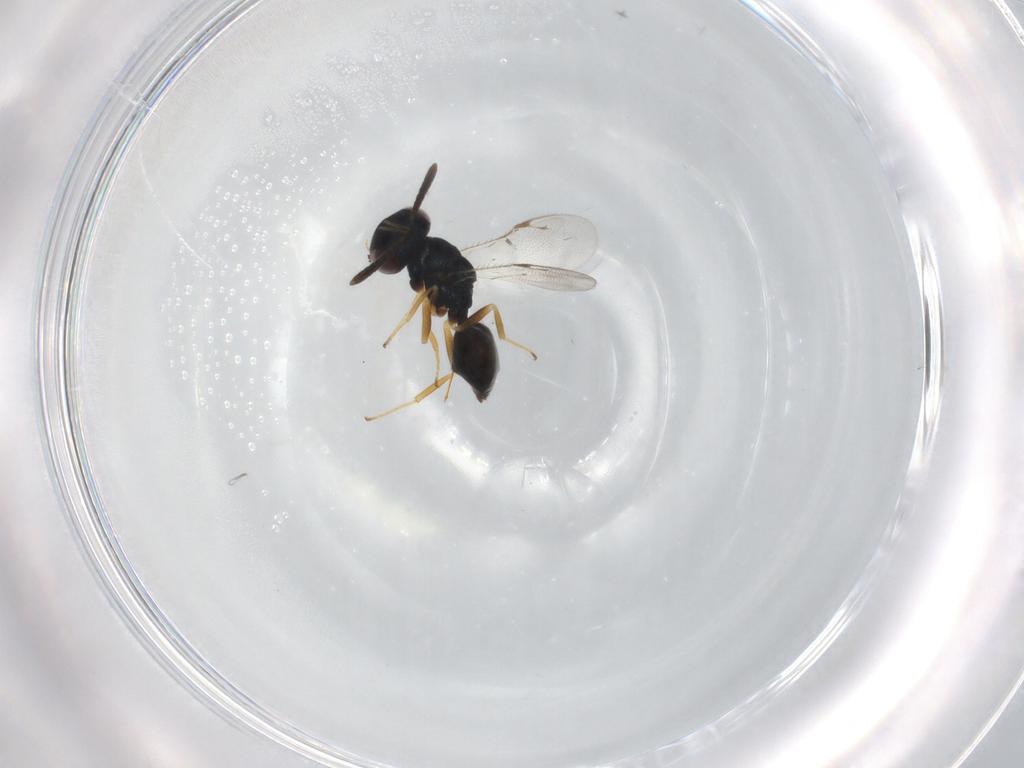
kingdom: Animalia
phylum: Arthropoda
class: Insecta
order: Hymenoptera
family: Pteromalidae
